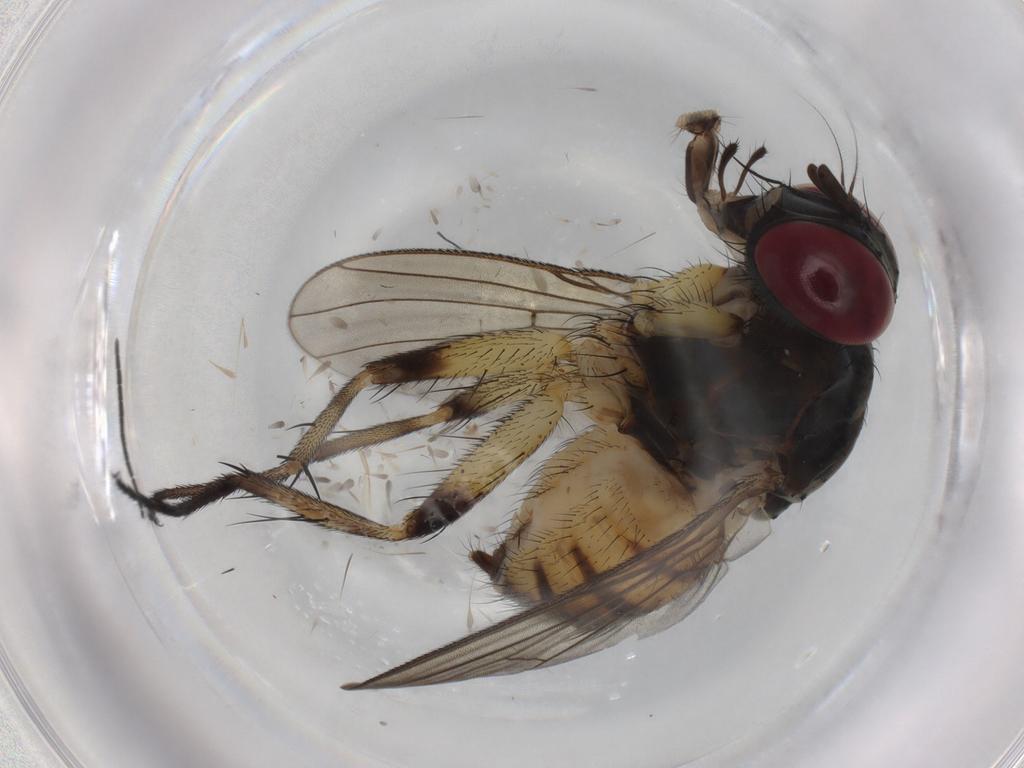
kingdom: Animalia
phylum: Arthropoda
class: Insecta
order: Diptera
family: Muscidae
